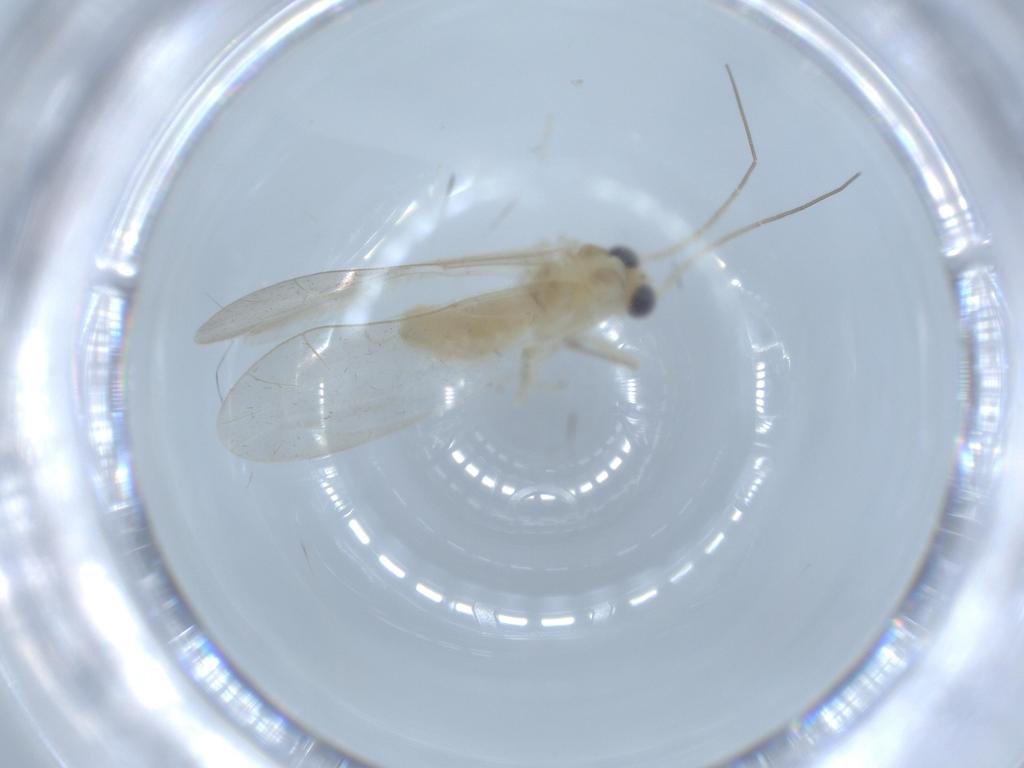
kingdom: Animalia
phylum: Arthropoda
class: Insecta
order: Psocodea
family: Caeciliusidae
